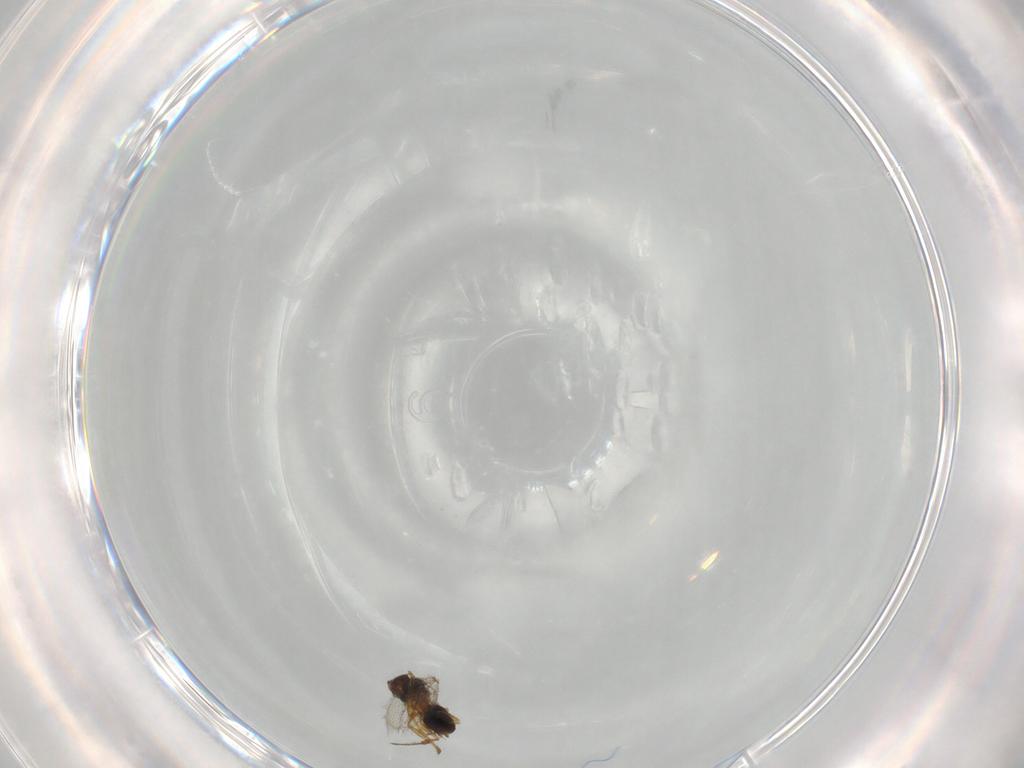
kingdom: Animalia
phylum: Arthropoda
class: Insecta
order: Hymenoptera
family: Figitidae
